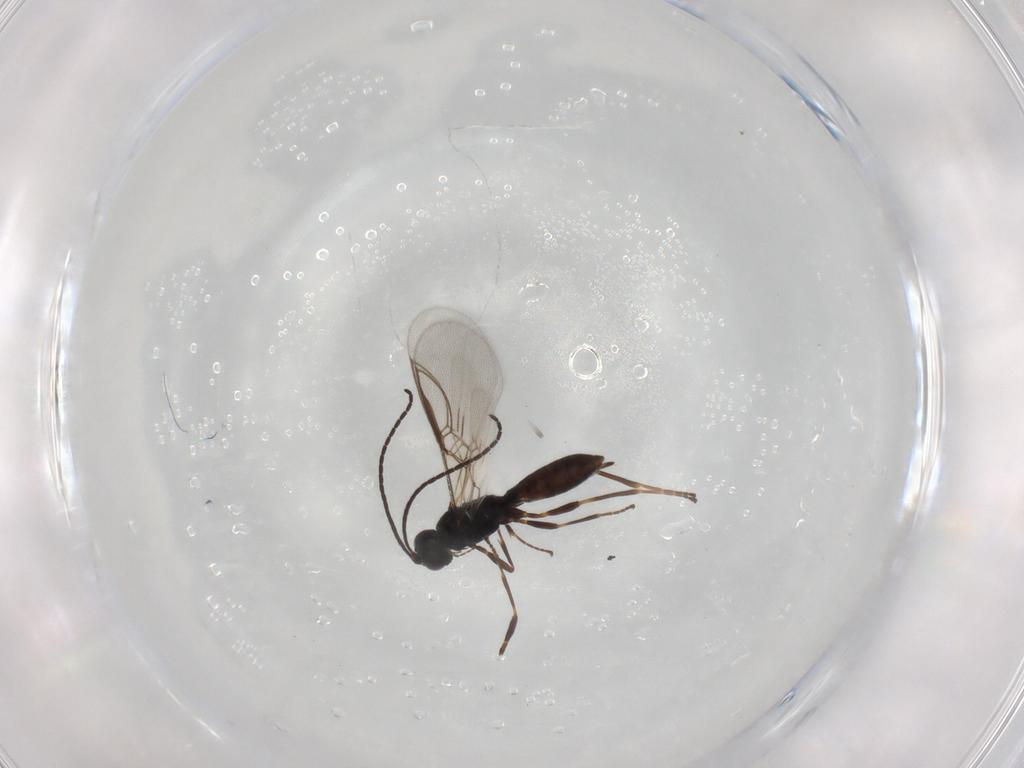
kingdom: Animalia
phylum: Arthropoda
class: Insecta
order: Hymenoptera
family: Braconidae
